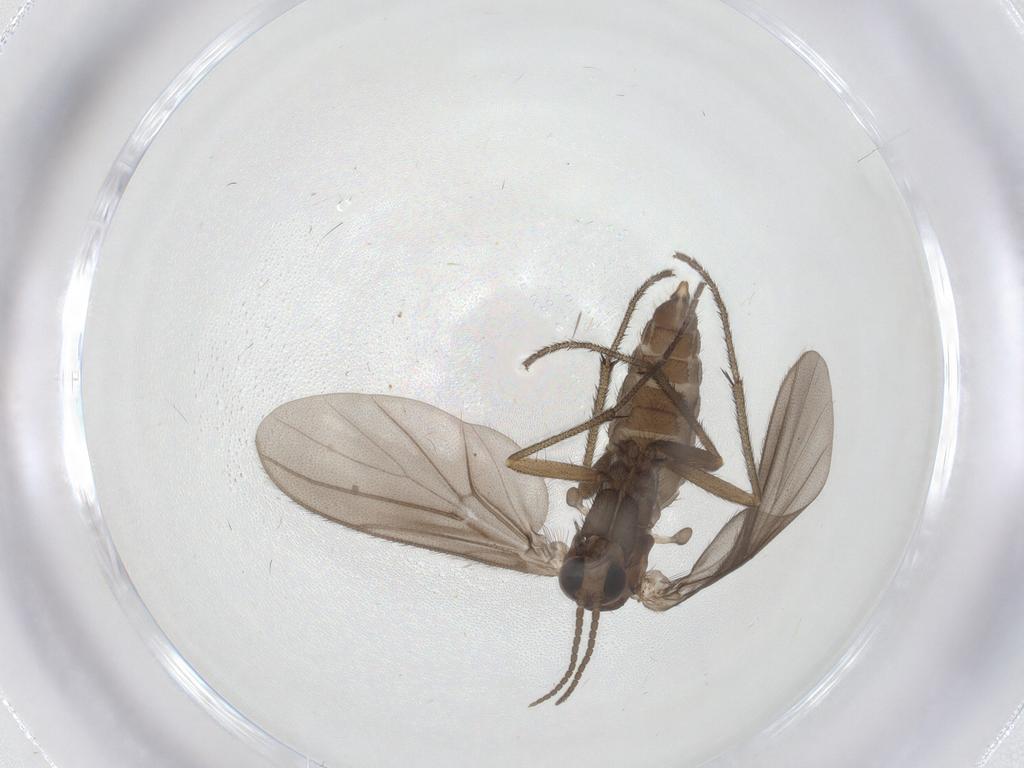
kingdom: Animalia
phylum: Arthropoda
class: Insecta
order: Diptera
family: Diadocidiidae
